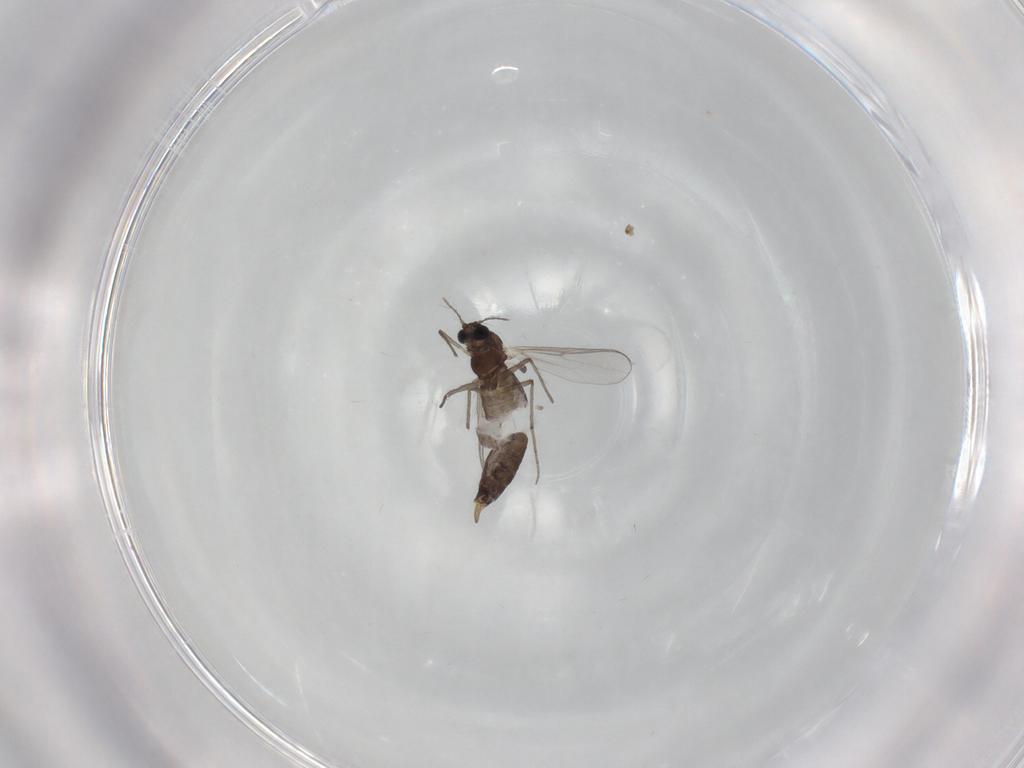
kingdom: Animalia
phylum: Arthropoda
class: Insecta
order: Diptera
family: Chironomidae
